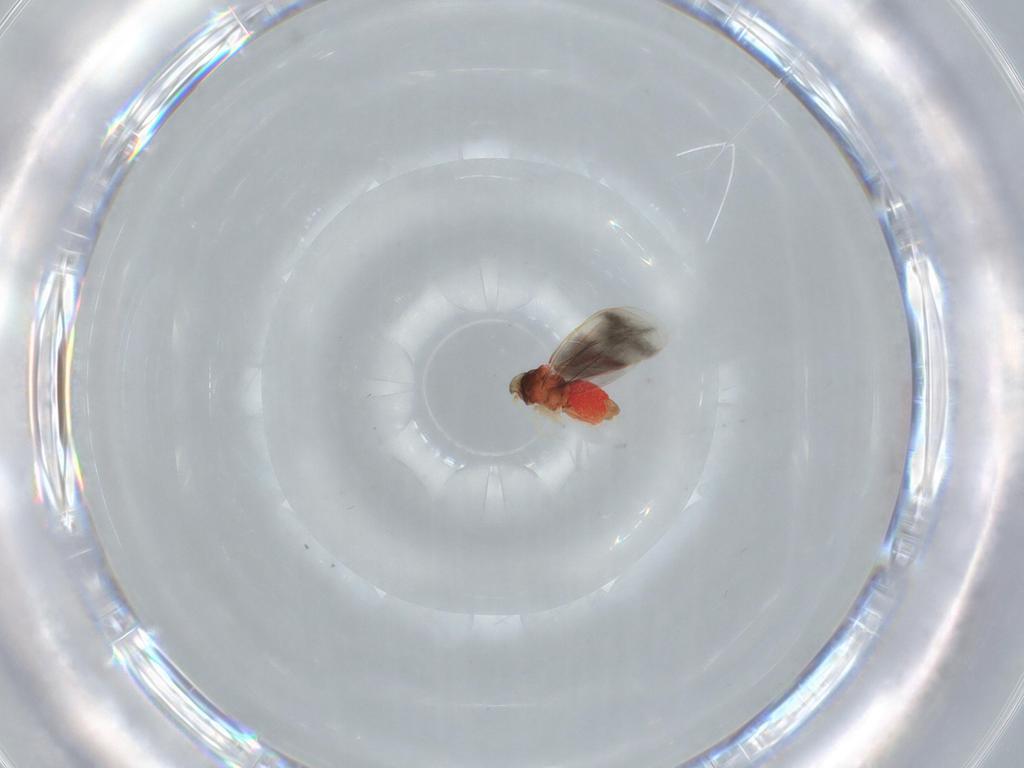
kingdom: Animalia
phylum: Arthropoda
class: Insecta
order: Hemiptera
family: Aleyrodidae
